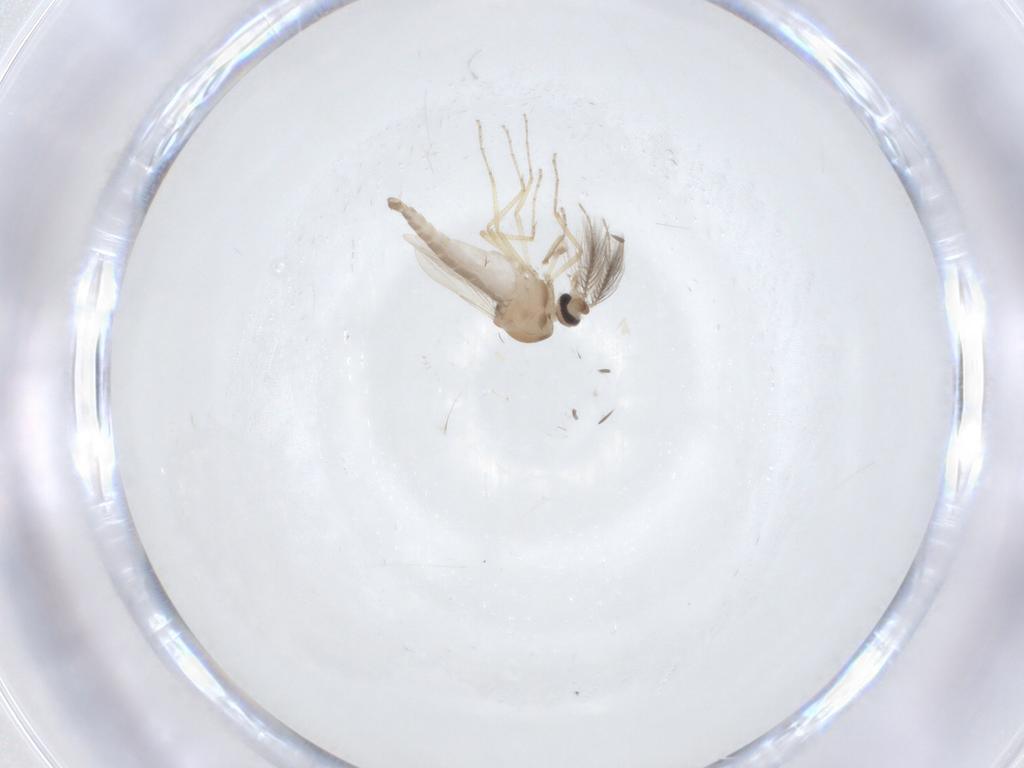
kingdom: Animalia
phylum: Arthropoda
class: Insecta
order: Diptera
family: Ceratopogonidae
